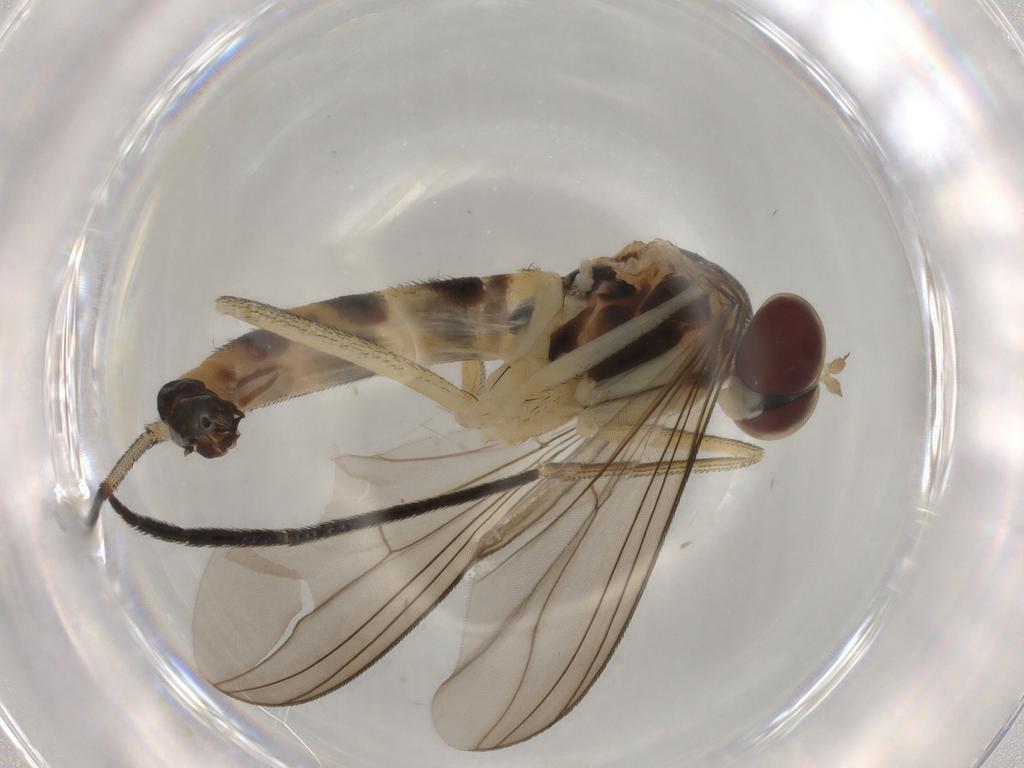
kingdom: Animalia
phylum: Arthropoda
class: Insecta
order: Diptera
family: Muscidae
